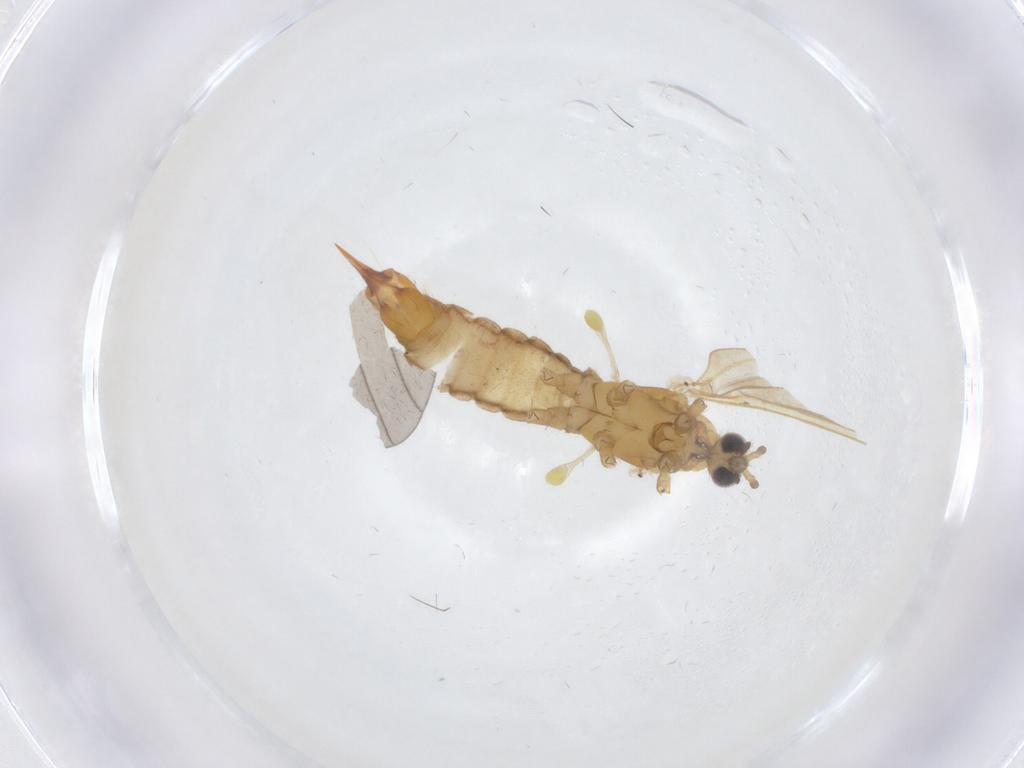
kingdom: Animalia
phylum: Arthropoda
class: Insecta
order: Diptera
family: Limoniidae
